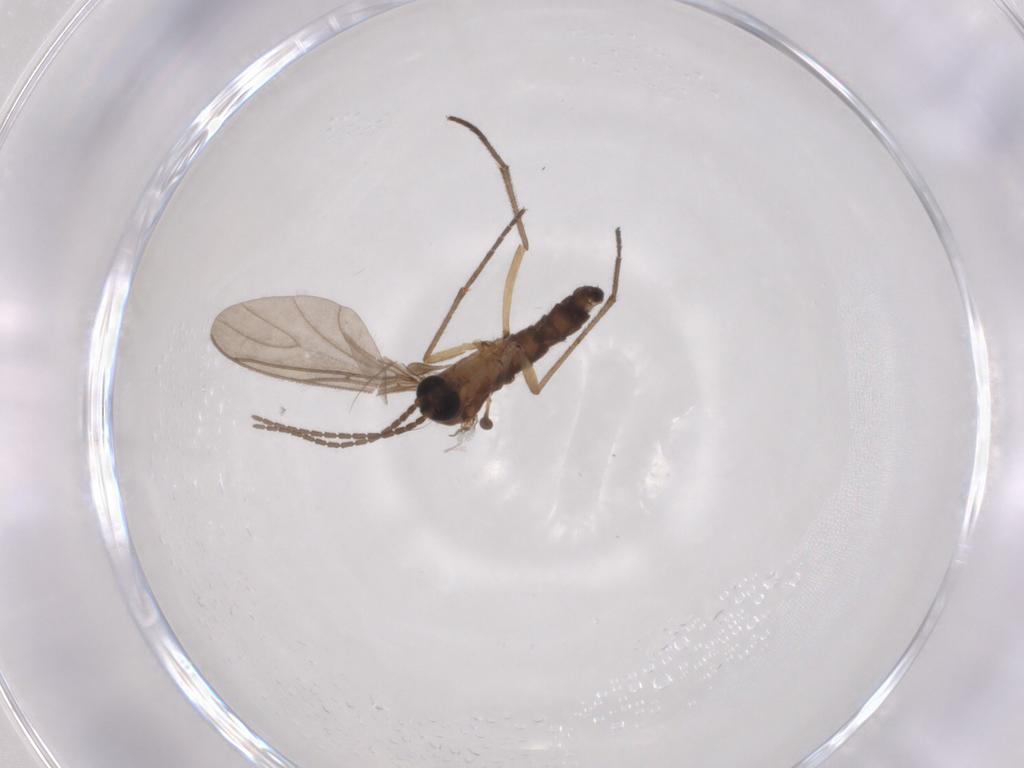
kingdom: Animalia
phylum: Arthropoda
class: Insecta
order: Diptera
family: Sciaridae
